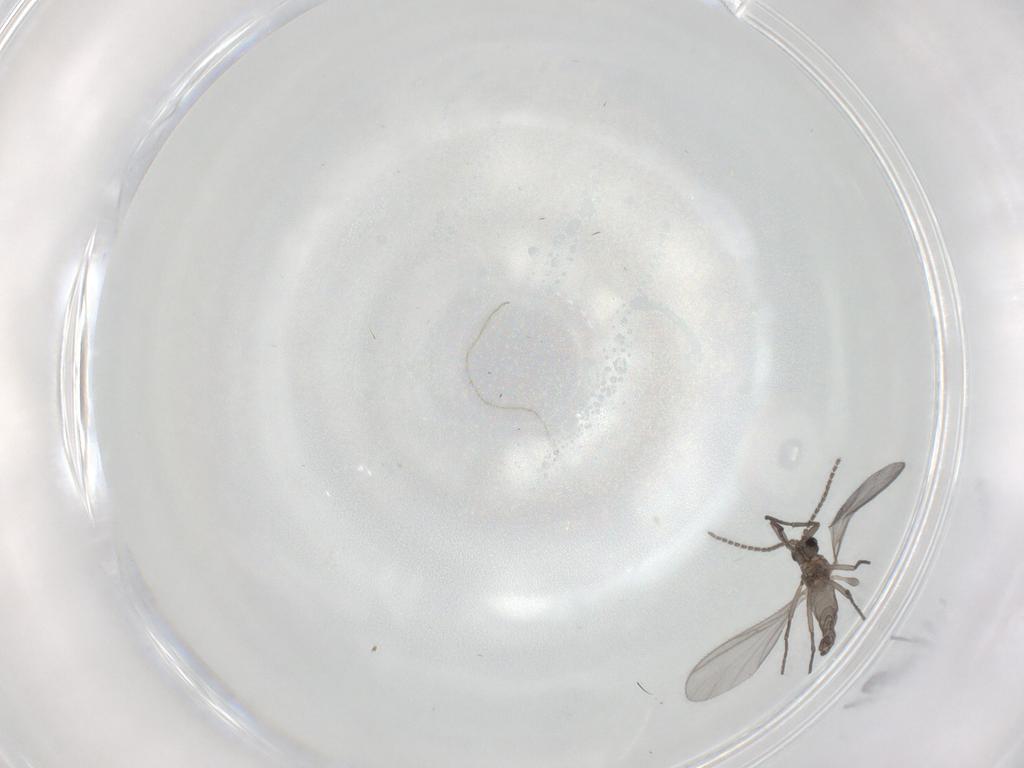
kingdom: Animalia
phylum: Arthropoda
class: Insecta
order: Diptera
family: Sciaridae
